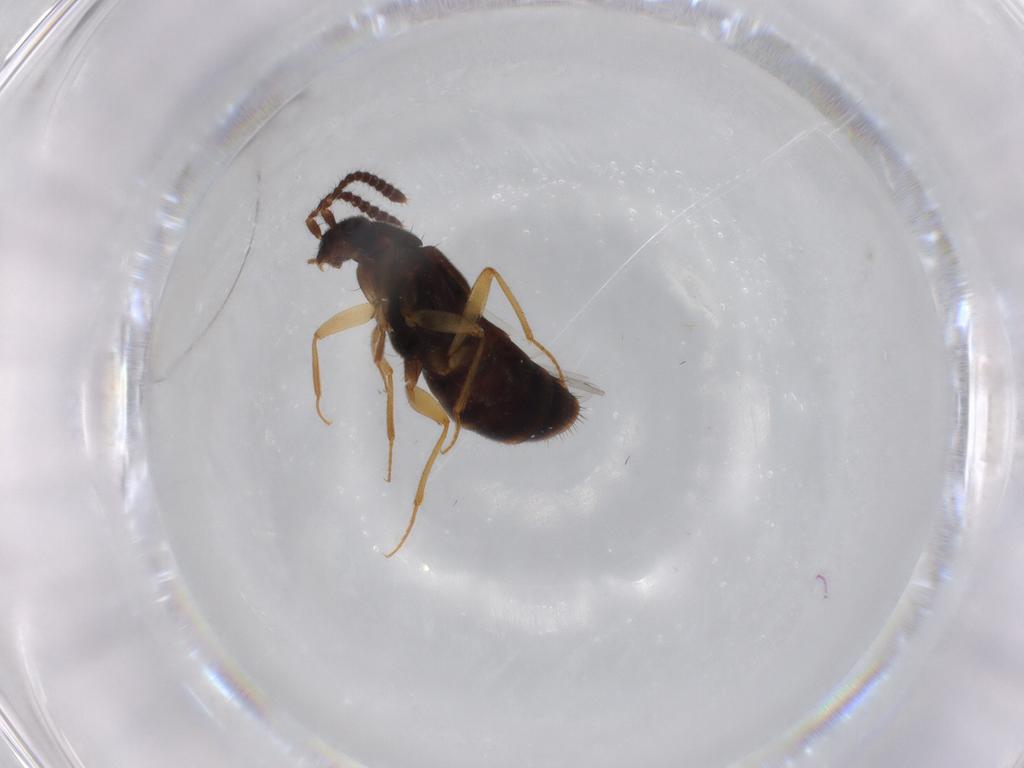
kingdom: Animalia
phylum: Arthropoda
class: Insecta
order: Coleoptera
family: Staphylinidae
